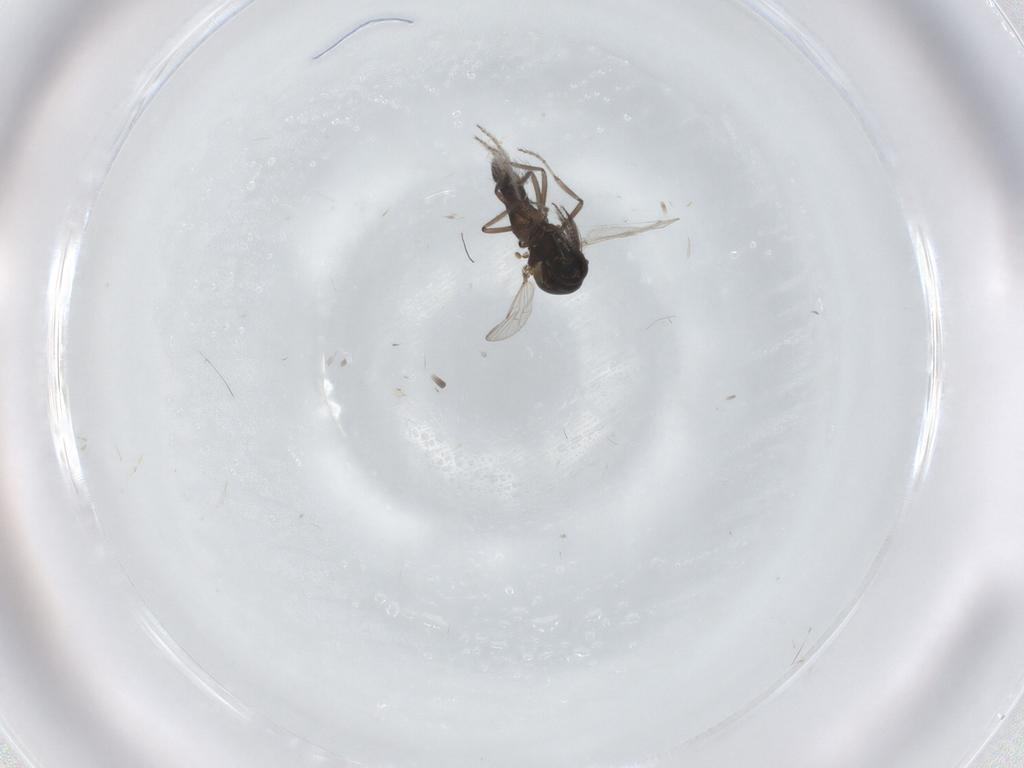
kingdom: Animalia
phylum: Arthropoda
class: Insecta
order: Diptera
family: Ceratopogonidae
